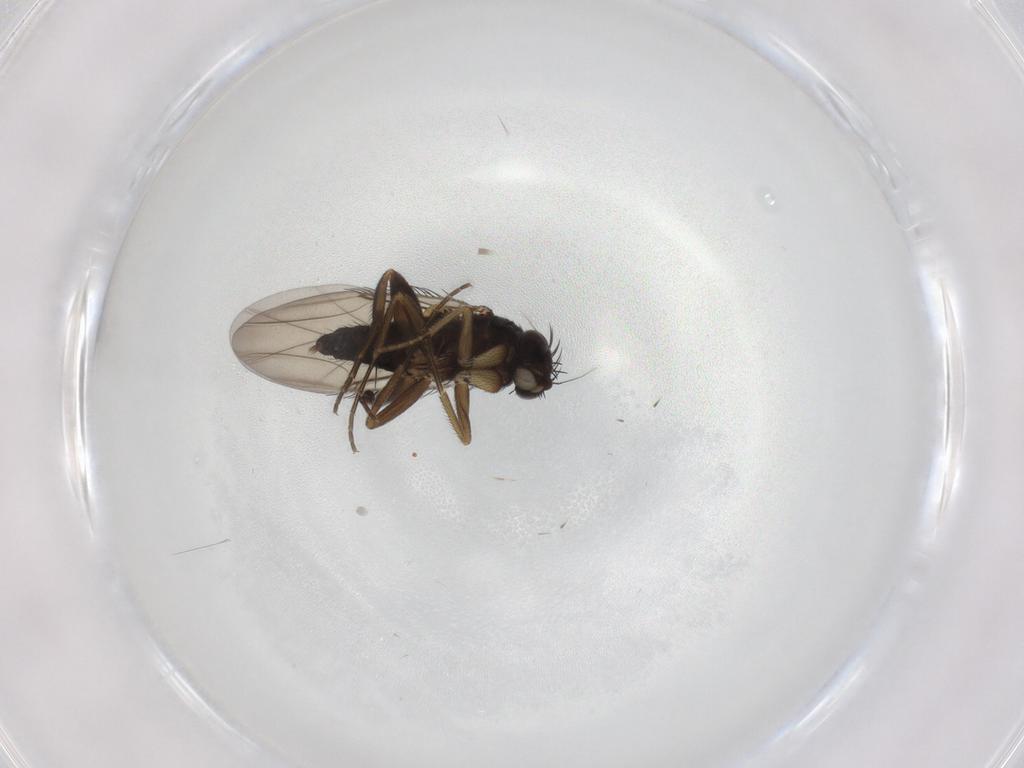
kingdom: Animalia
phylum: Arthropoda
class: Insecta
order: Diptera
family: Phoridae
